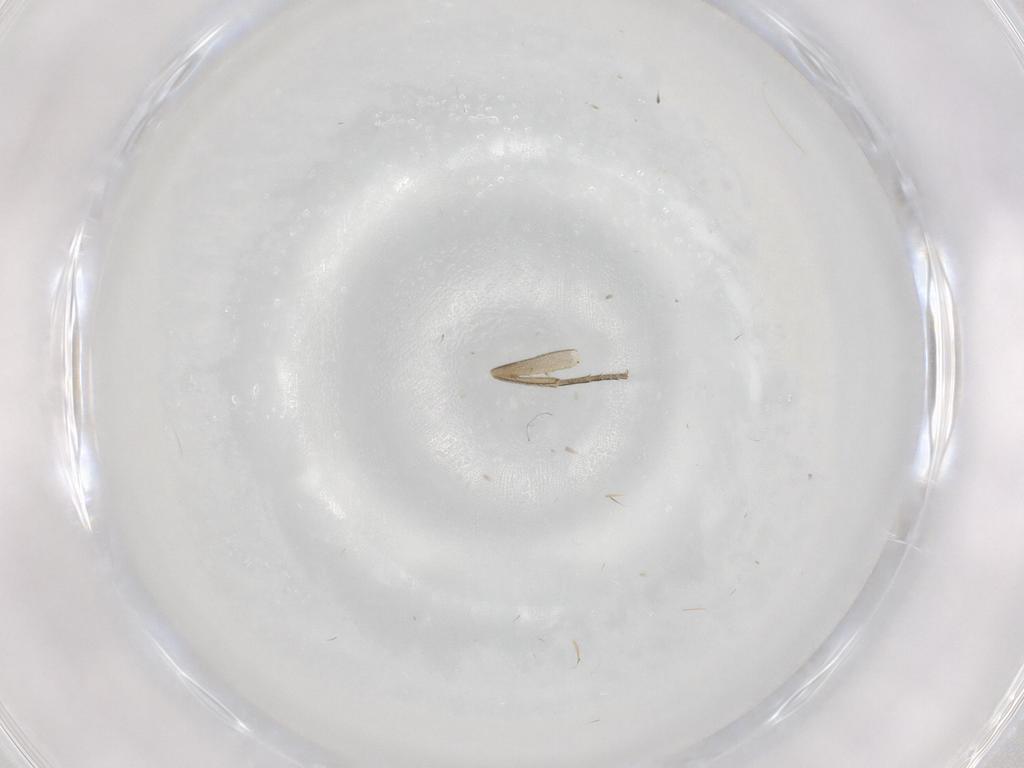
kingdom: Animalia
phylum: Arthropoda
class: Insecta
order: Diptera
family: Phoridae
